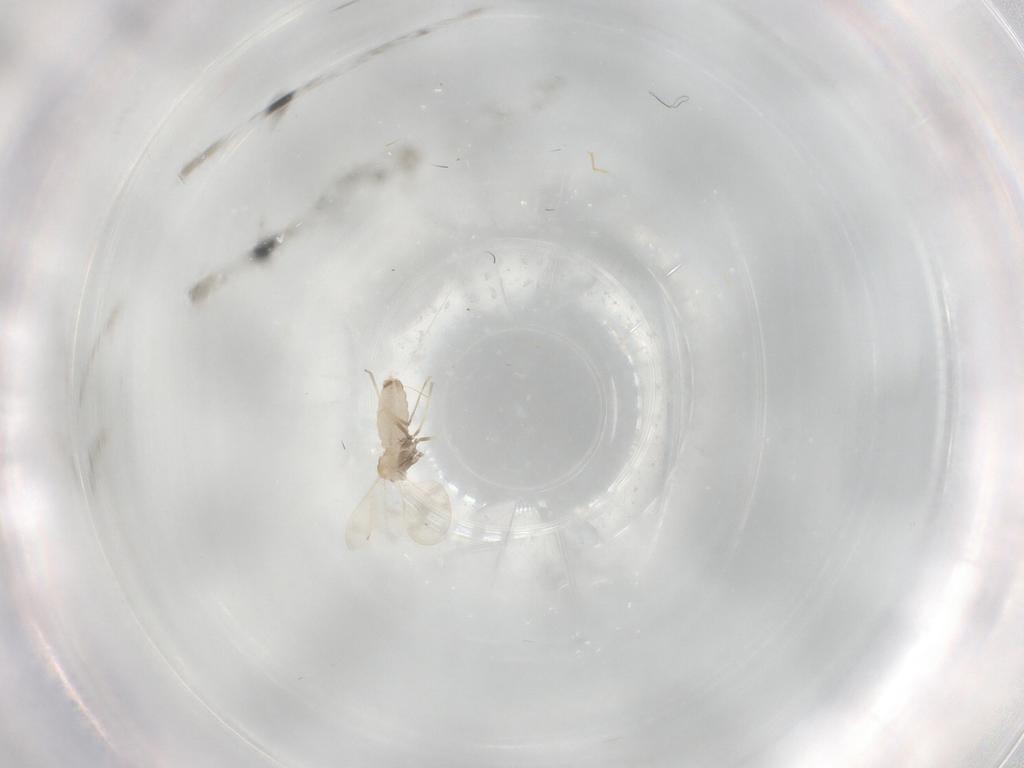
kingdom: Animalia
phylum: Arthropoda
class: Insecta
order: Diptera
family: Cecidomyiidae
